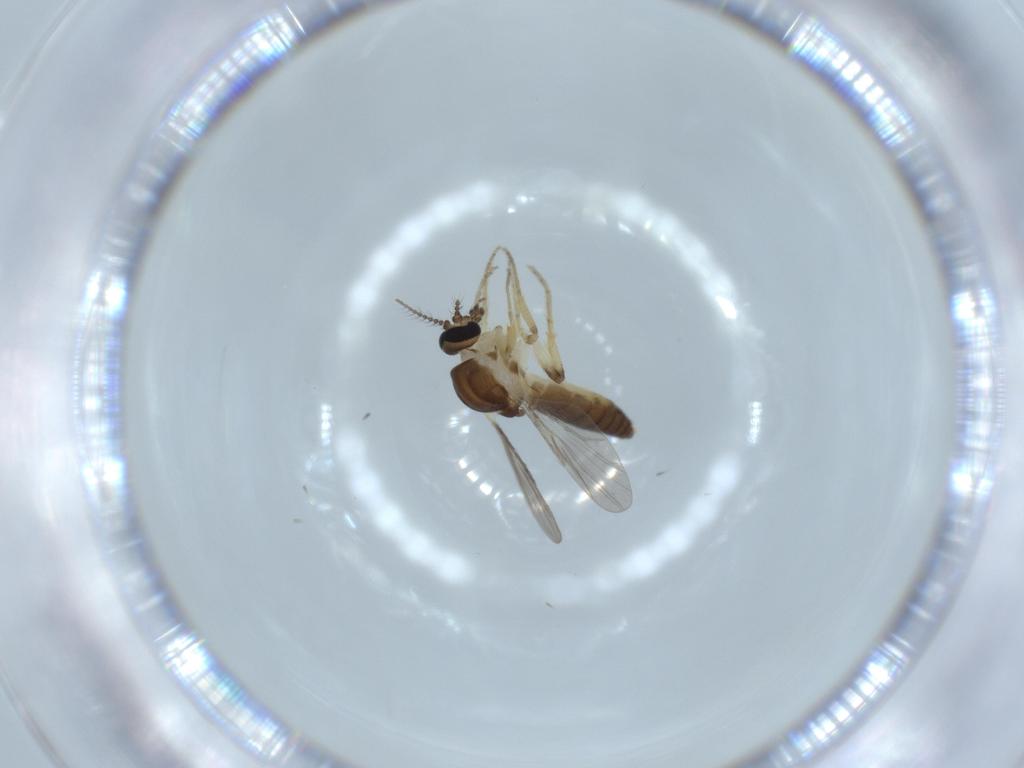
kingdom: Animalia
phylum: Arthropoda
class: Insecta
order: Diptera
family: Ceratopogonidae
